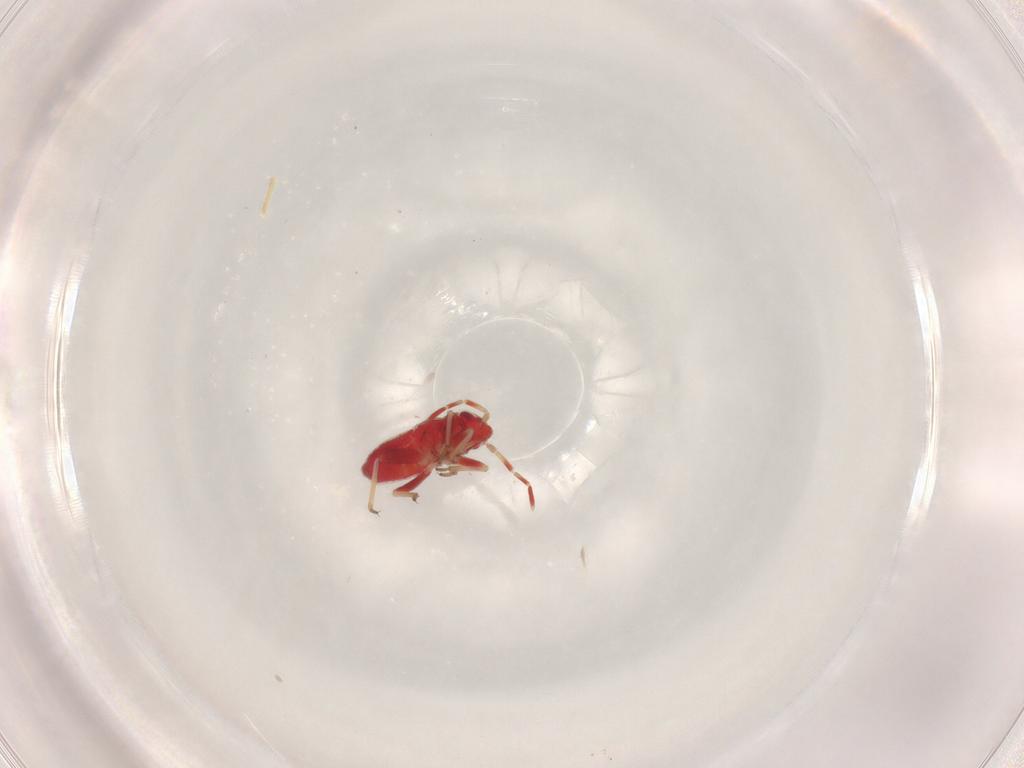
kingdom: Animalia
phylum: Arthropoda
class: Insecta
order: Hemiptera
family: Miridae
